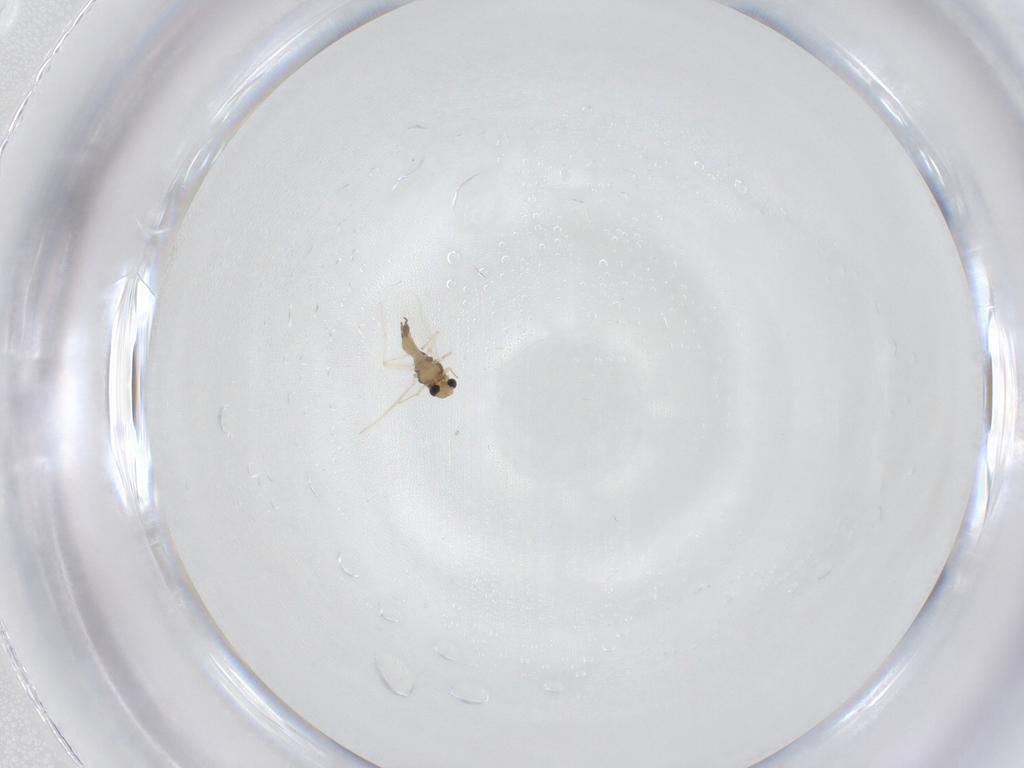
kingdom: Animalia
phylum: Arthropoda
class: Insecta
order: Diptera
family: Chironomidae
